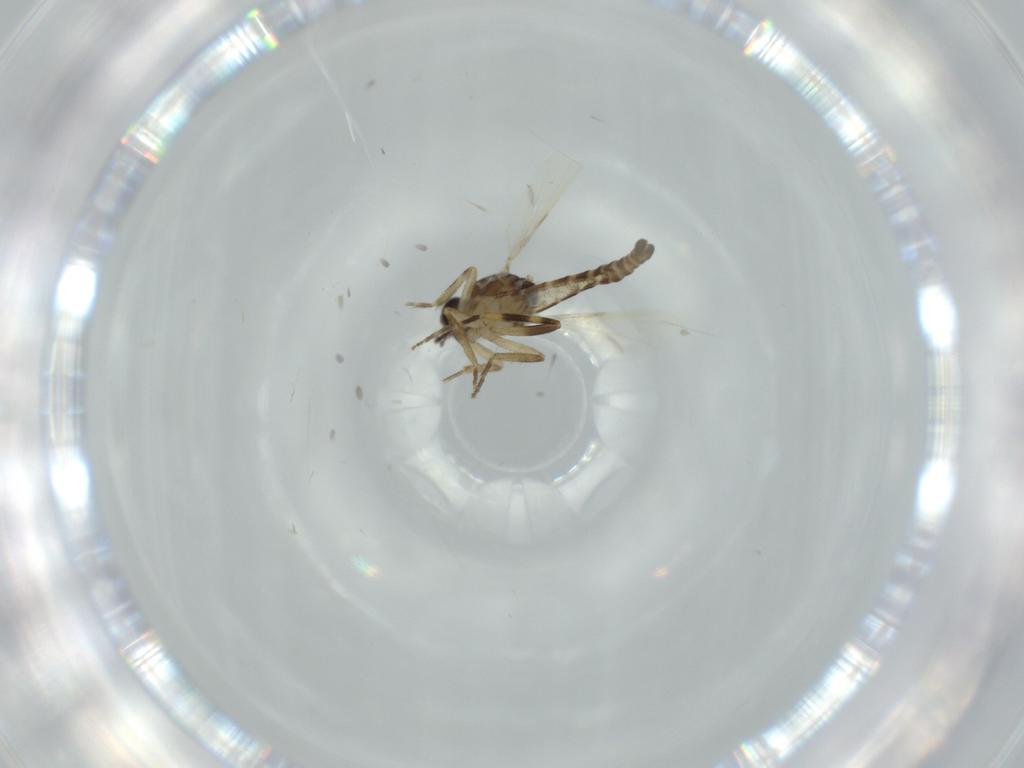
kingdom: Animalia
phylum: Arthropoda
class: Insecta
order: Diptera
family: Ceratopogonidae
